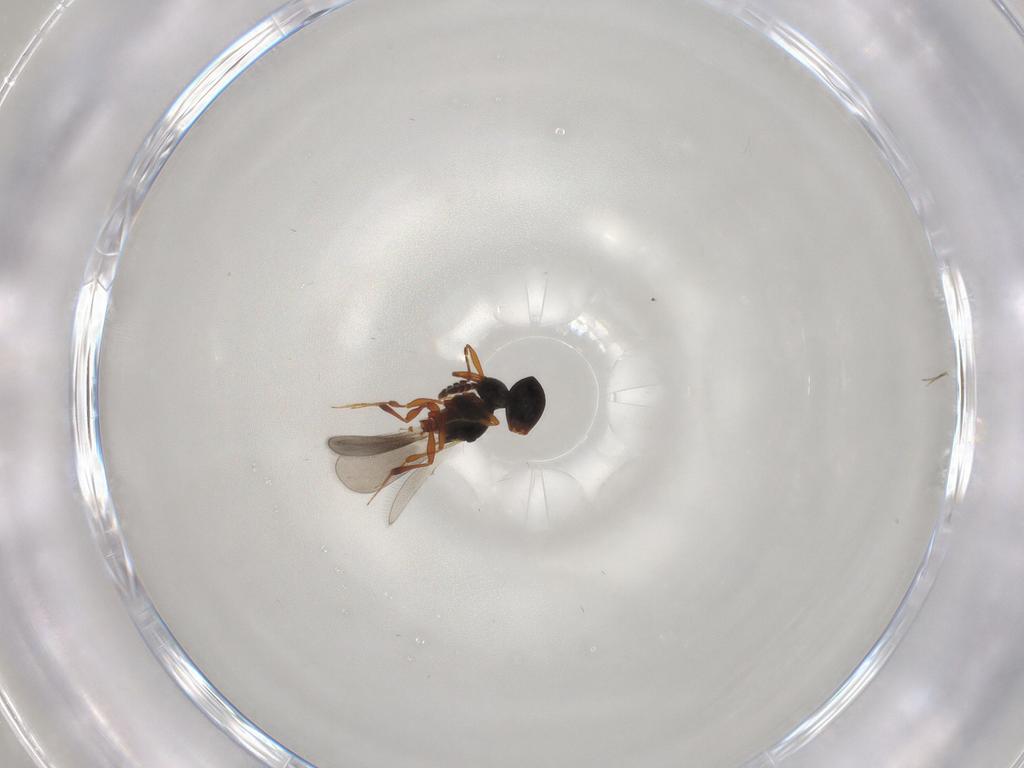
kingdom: Animalia
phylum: Arthropoda
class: Insecta
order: Hymenoptera
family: Platygastridae
